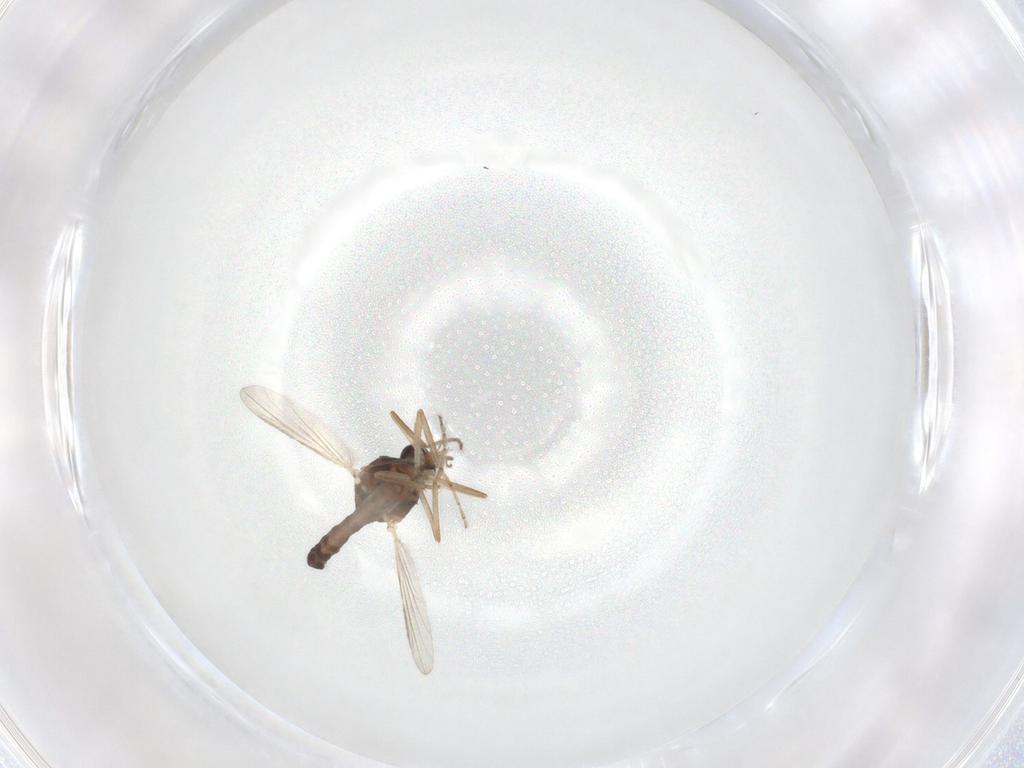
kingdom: Animalia
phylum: Arthropoda
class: Insecta
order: Diptera
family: Ceratopogonidae
